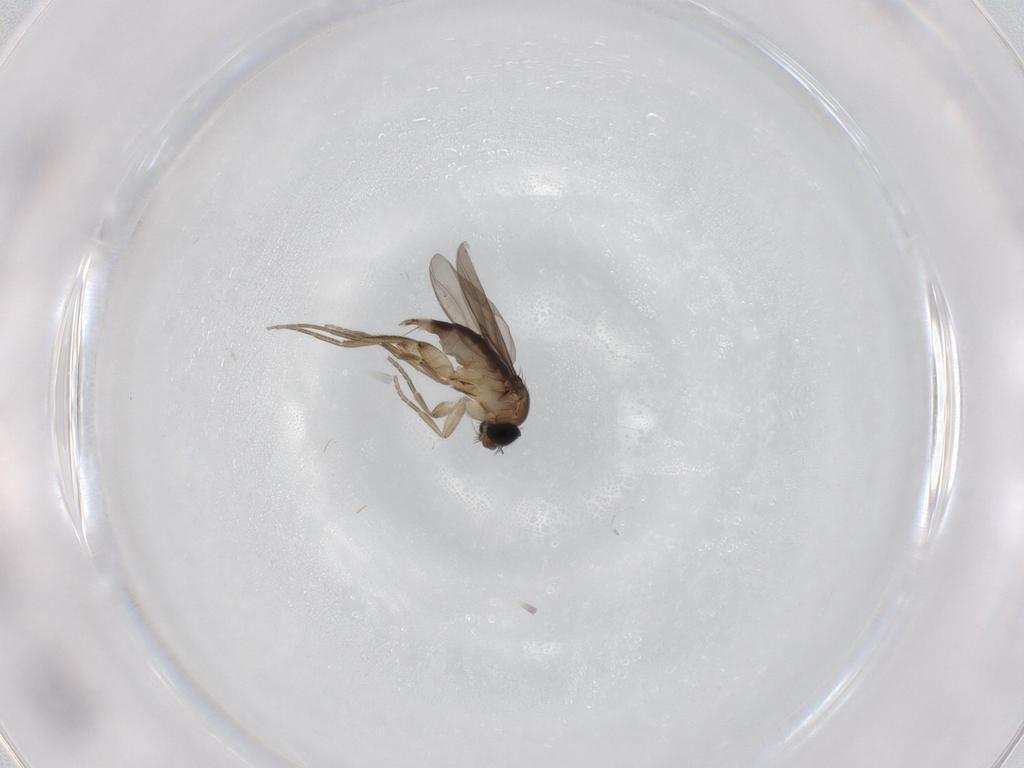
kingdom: Animalia
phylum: Arthropoda
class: Insecta
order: Diptera
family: Phoridae
